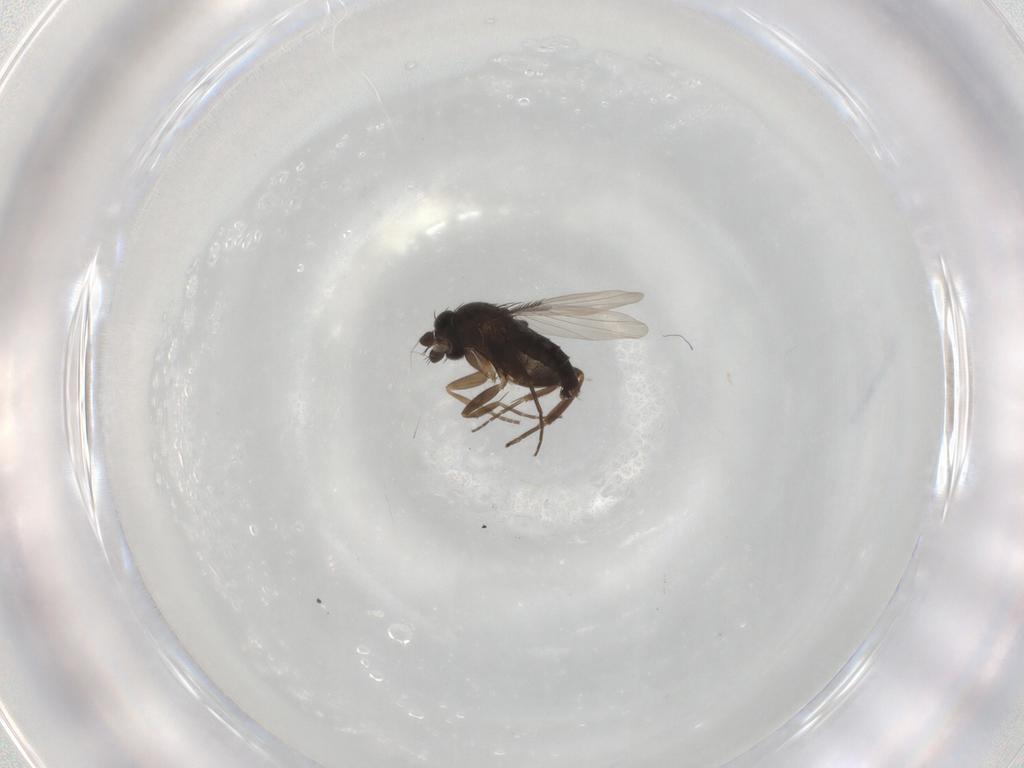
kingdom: Animalia
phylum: Arthropoda
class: Insecta
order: Diptera
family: Phoridae
